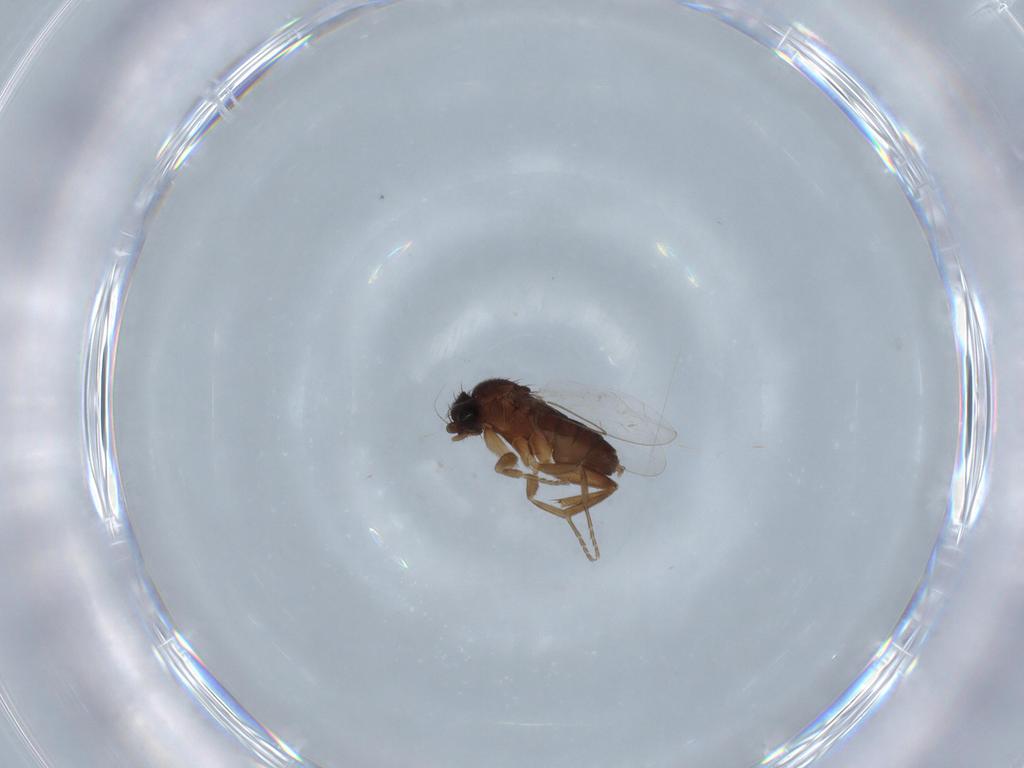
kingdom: Animalia
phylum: Arthropoda
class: Insecta
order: Diptera
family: Phoridae
